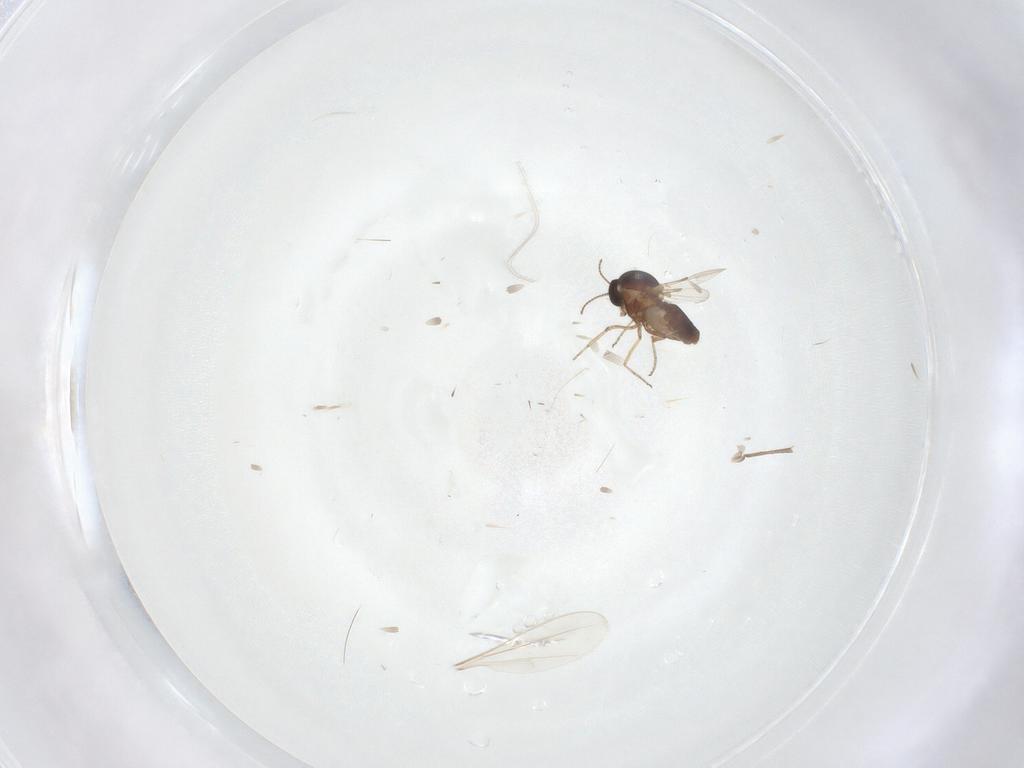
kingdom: Animalia
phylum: Arthropoda
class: Insecta
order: Diptera
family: Ceratopogonidae
